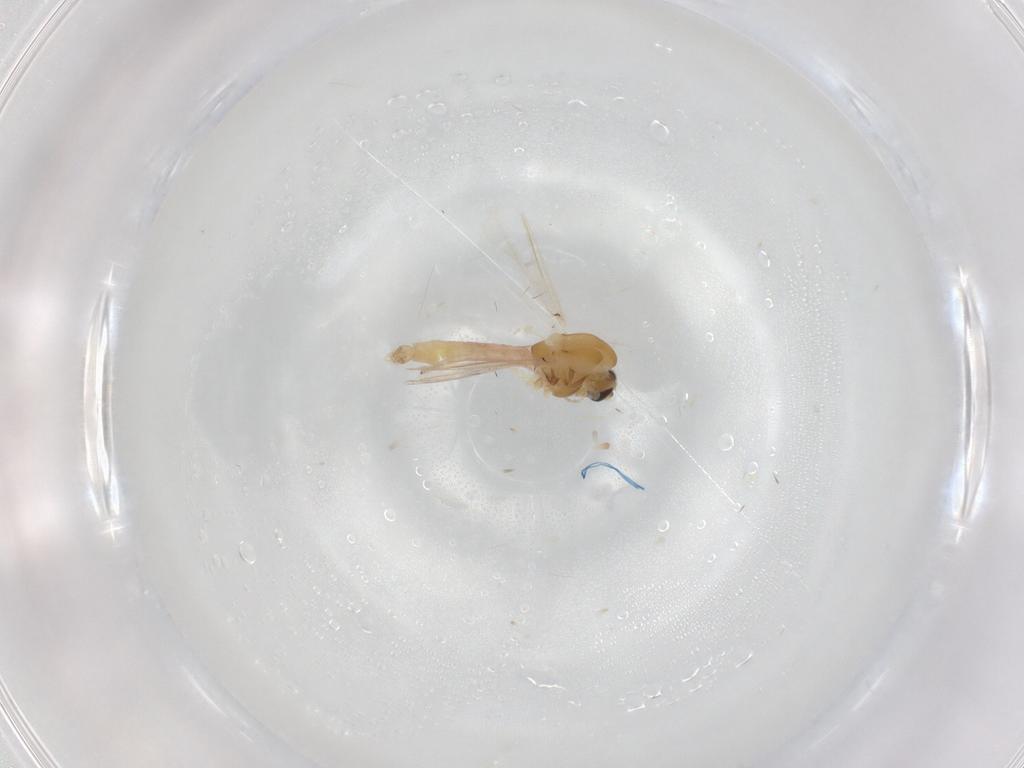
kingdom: Animalia
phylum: Arthropoda
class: Insecta
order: Diptera
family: Chironomidae
